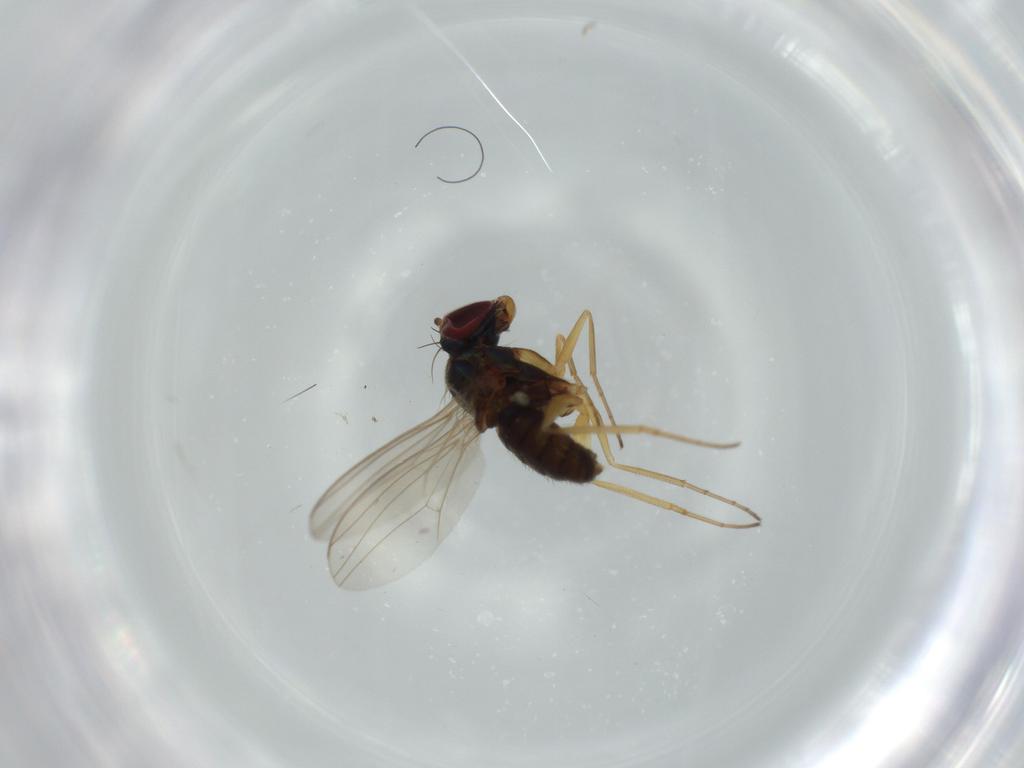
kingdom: Animalia
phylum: Arthropoda
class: Insecta
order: Diptera
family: Dolichopodidae
